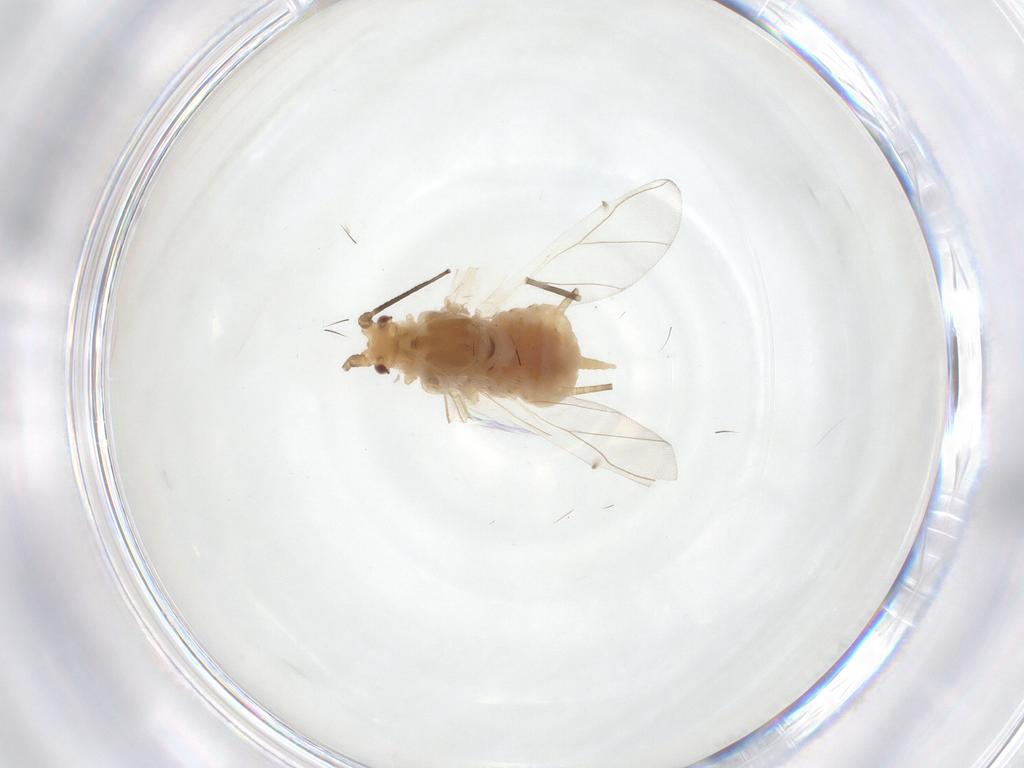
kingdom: Animalia
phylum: Arthropoda
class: Insecta
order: Hemiptera
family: Aphididae
